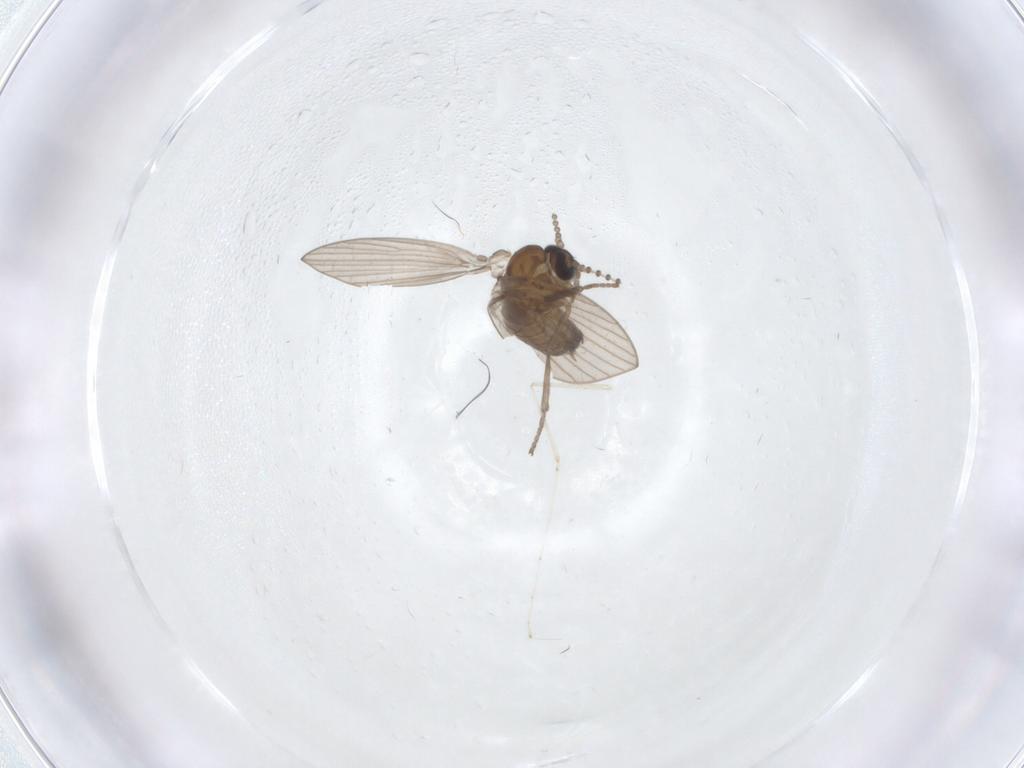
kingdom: Animalia
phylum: Arthropoda
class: Insecta
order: Diptera
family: Psychodidae
